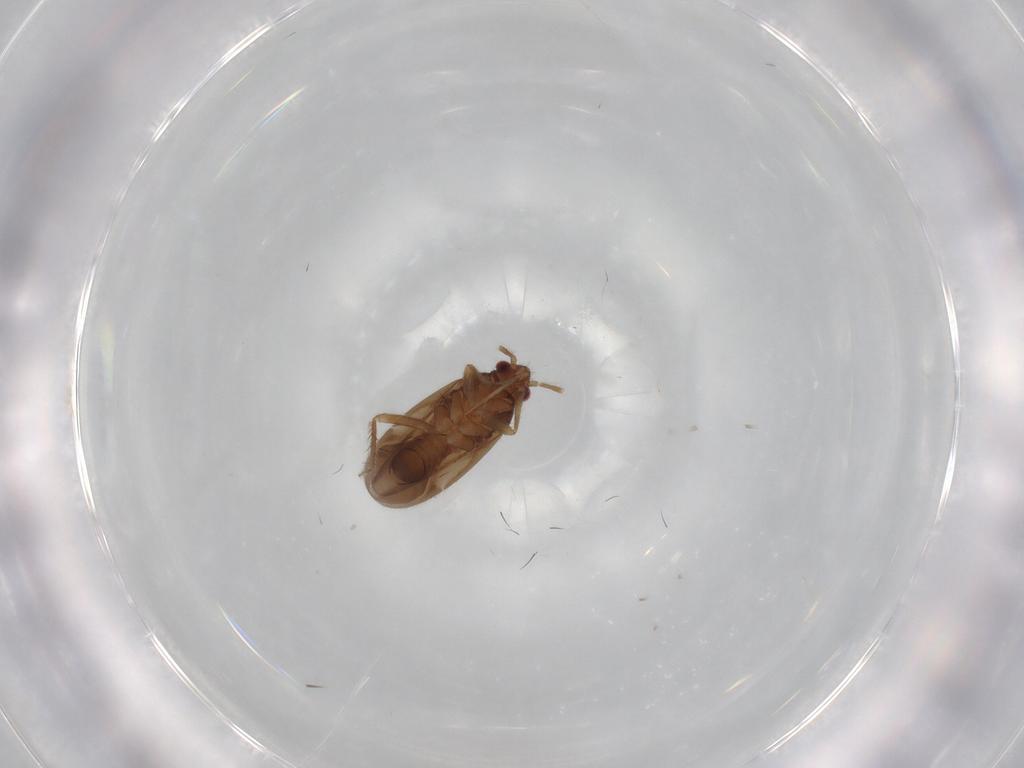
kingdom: Animalia
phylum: Arthropoda
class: Insecta
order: Hemiptera
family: Ceratocombidae
